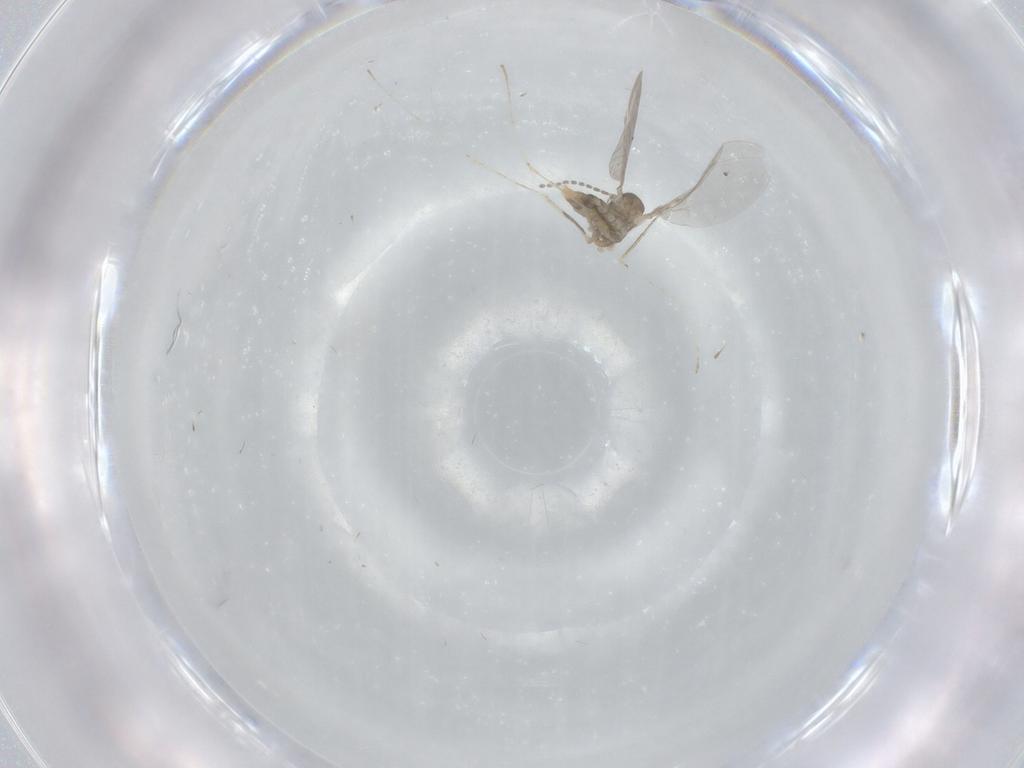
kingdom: Animalia
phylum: Arthropoda
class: Insecta
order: Diptera
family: Cecidomyiidae
